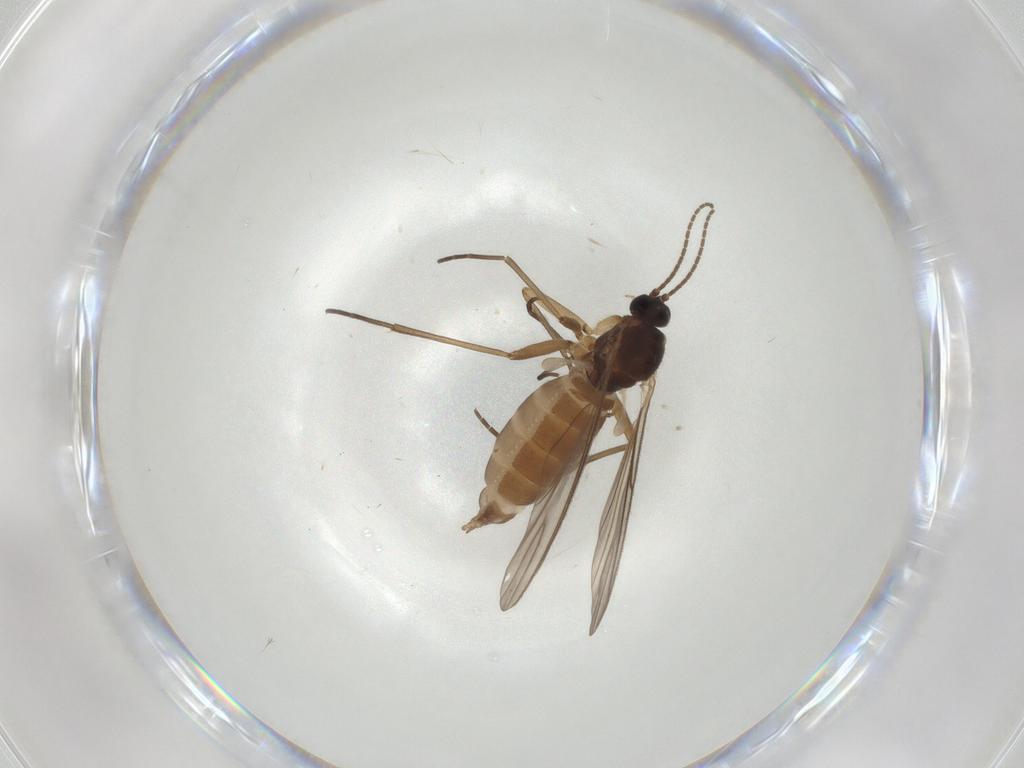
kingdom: Animalia
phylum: Arthropoda
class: Insecta
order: Diptera
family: Sciaridae
